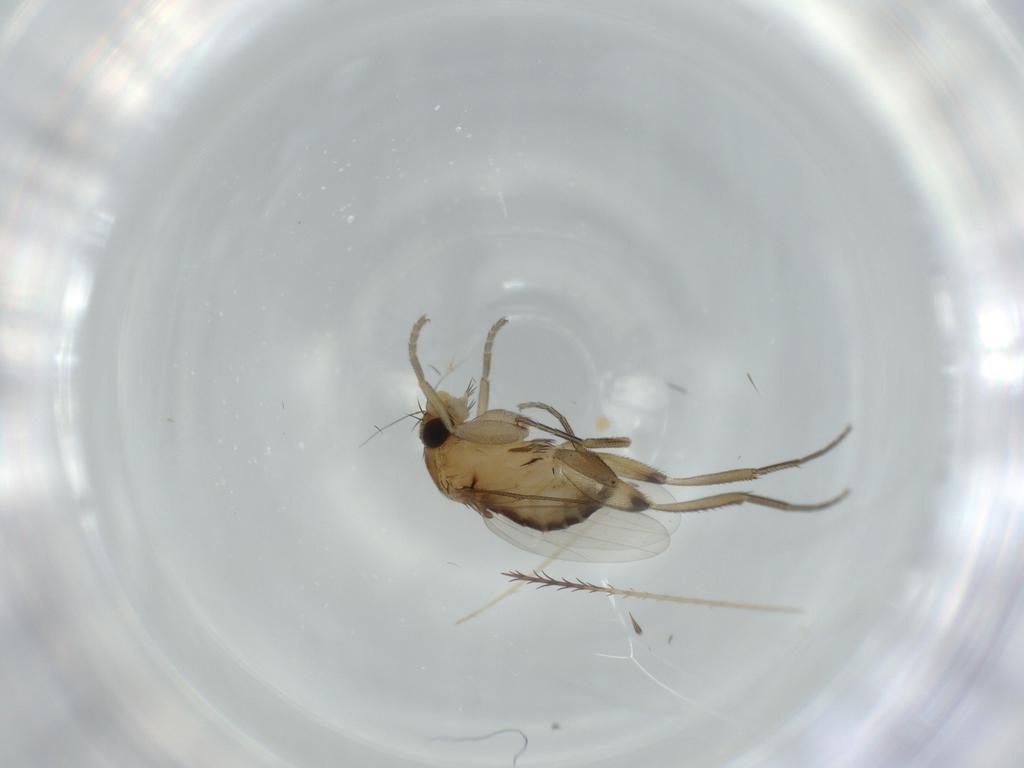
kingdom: Animalia
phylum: Arthropoda
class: Insecta
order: Diptera
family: Phoridae
